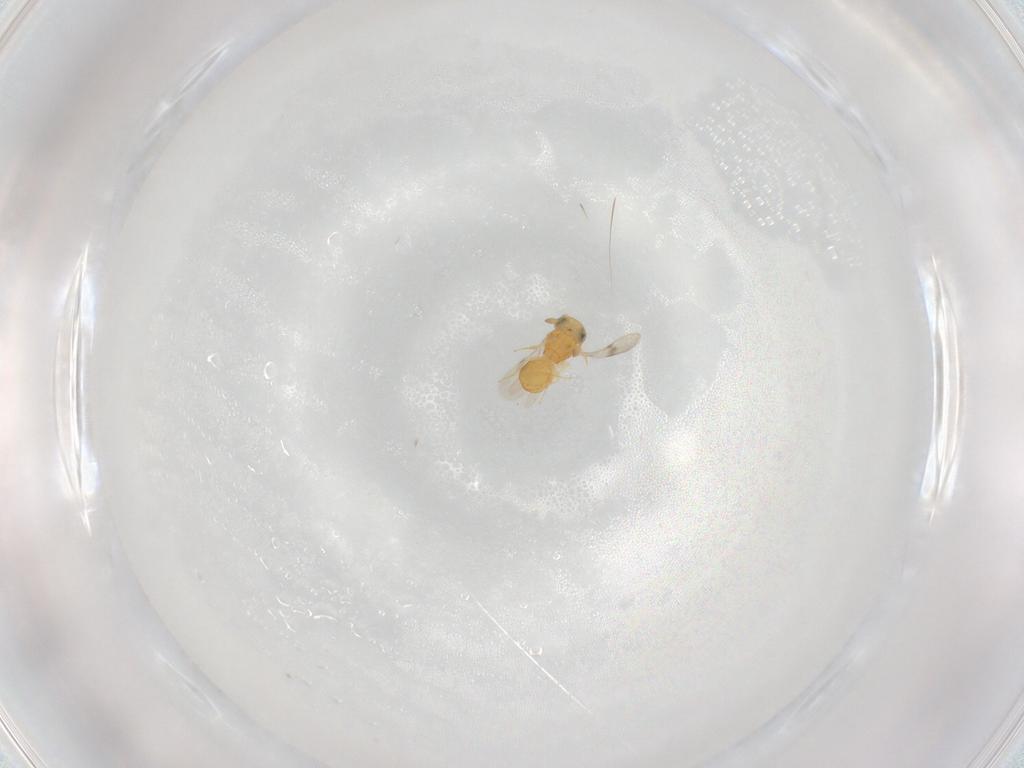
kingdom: Animalia
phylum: Arthropoda
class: Insecta
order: Hymenoptera
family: Scelionidae
